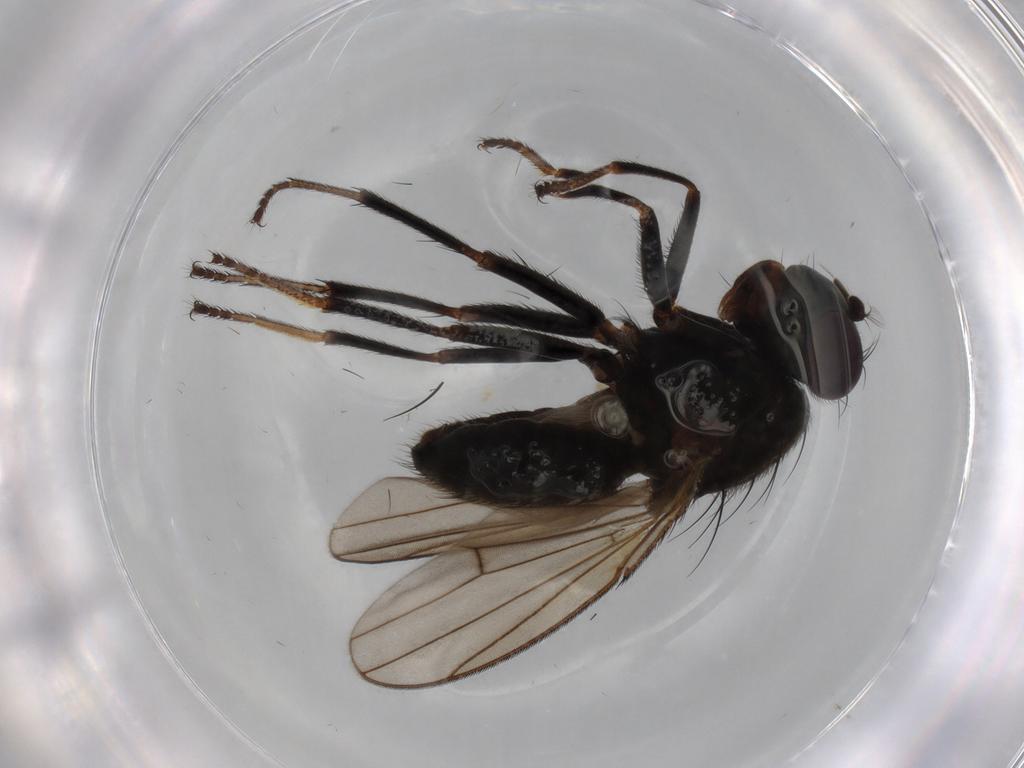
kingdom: Animalia
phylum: Arthropoda
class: Insecta
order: Diptera
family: Ephydridae
